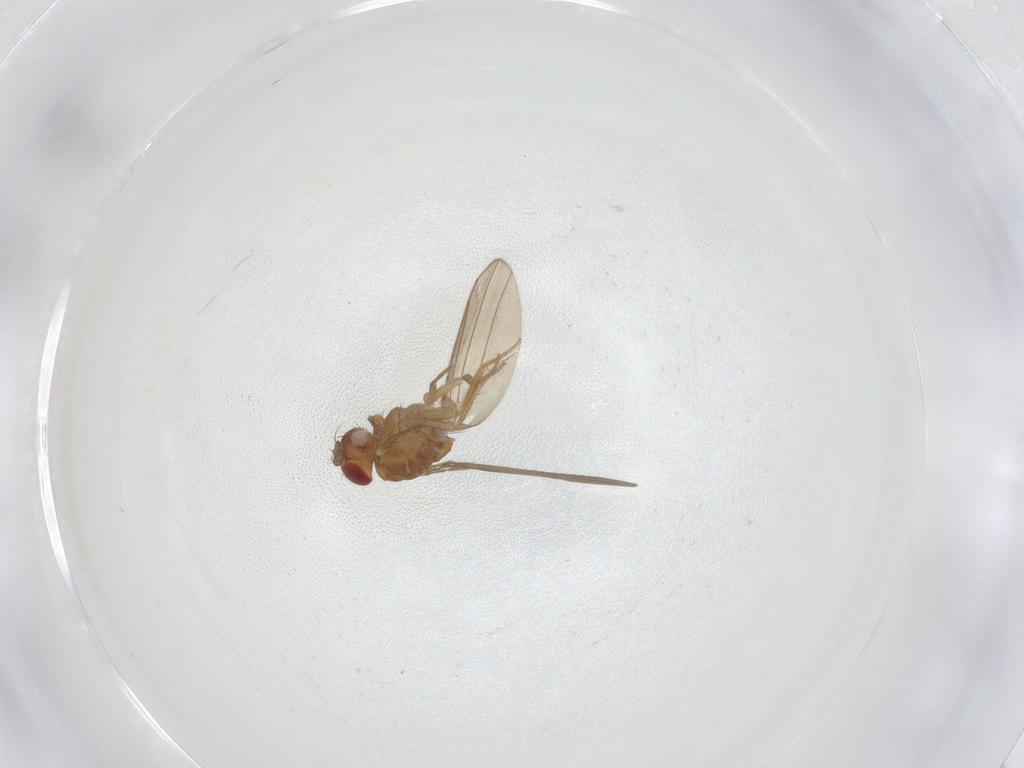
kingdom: Animalia
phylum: Arthropoda
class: Insecta
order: Diptera
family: Drosophilidae
